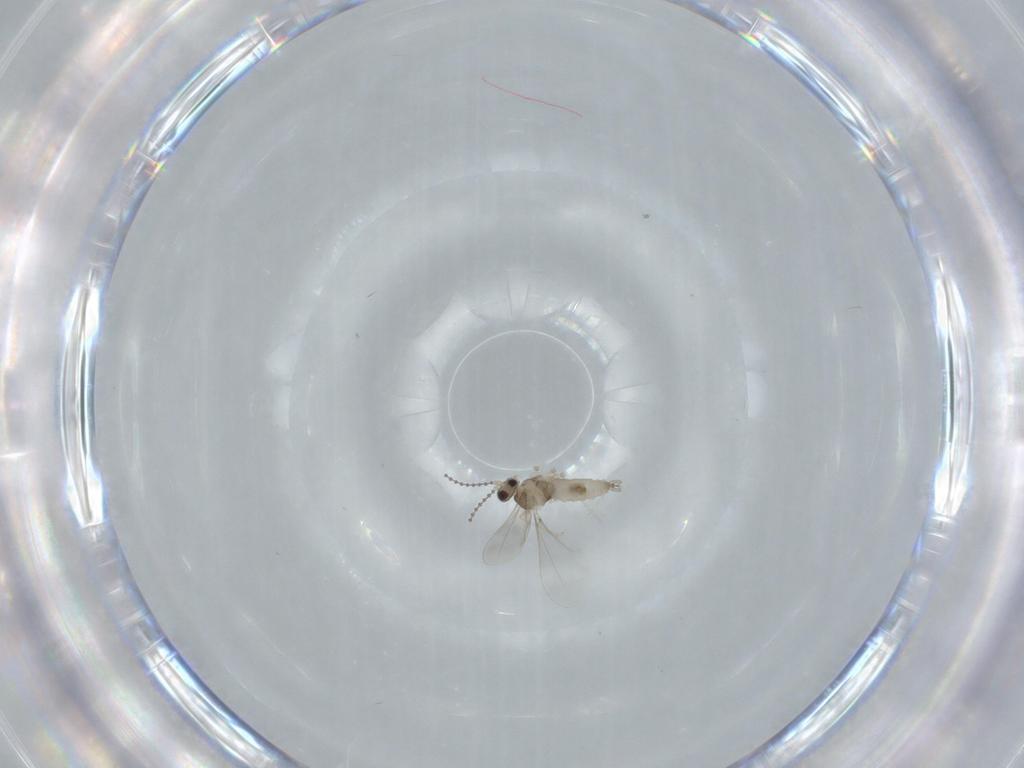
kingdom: Animalia
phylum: Arthropoda
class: Insecta
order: Diptera
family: Cecidomyiidae
